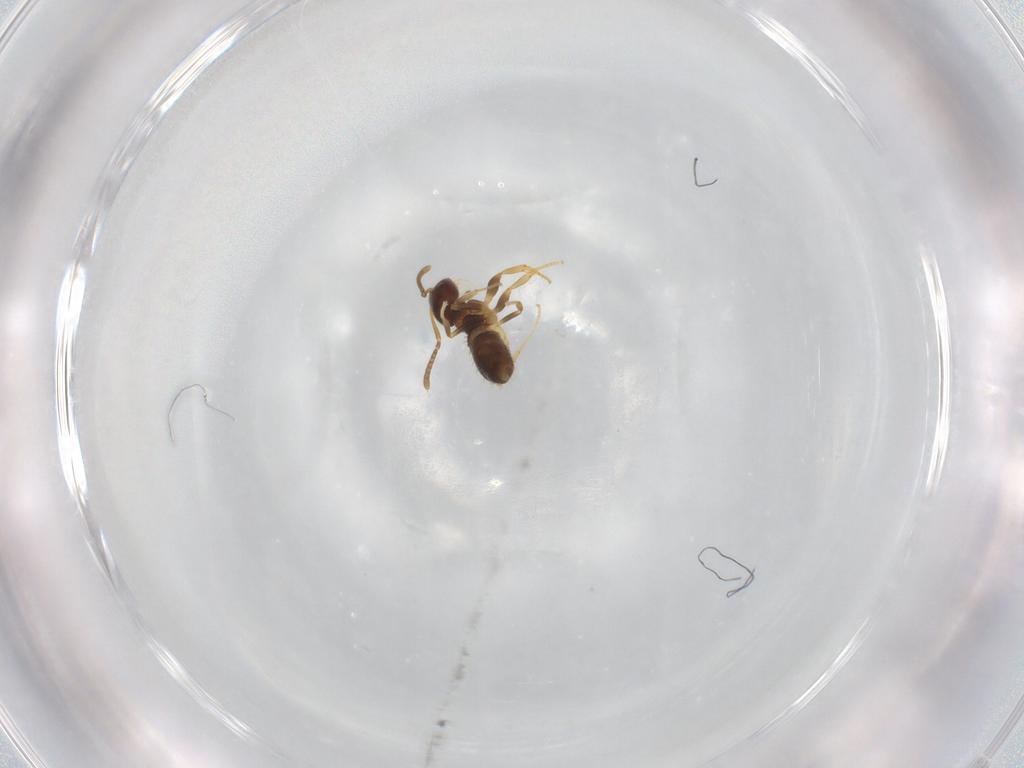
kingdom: Animalia
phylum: Arthropoda
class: Insecta
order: Hymenoptera
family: Formicidae
